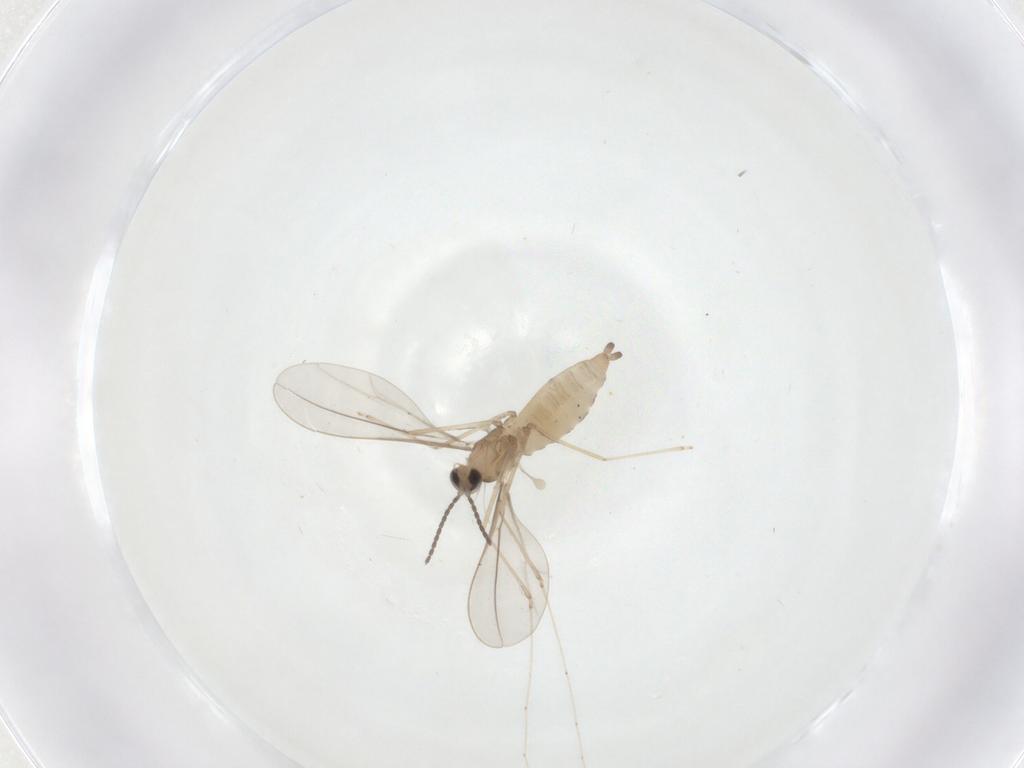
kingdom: Animalia
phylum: Arthropoda
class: Insecta
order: Diptera
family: Cecidomyiidae
